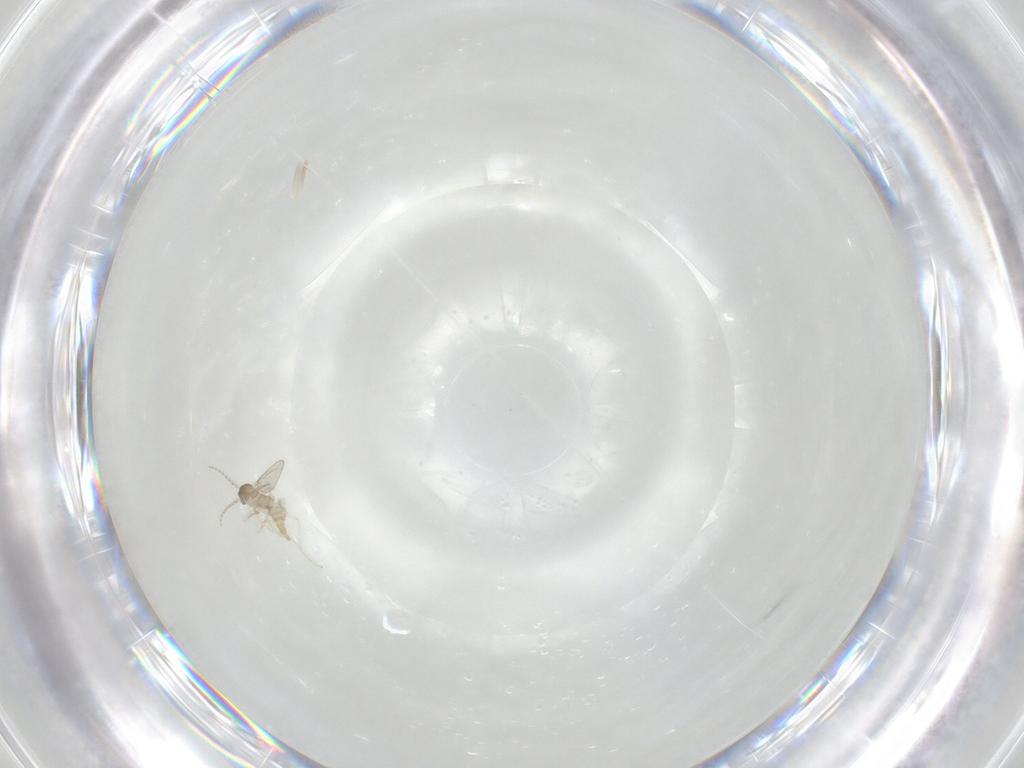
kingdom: Animalia
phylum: Arthropoda
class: Insecta
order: Diptera
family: Cecidomyiidae
